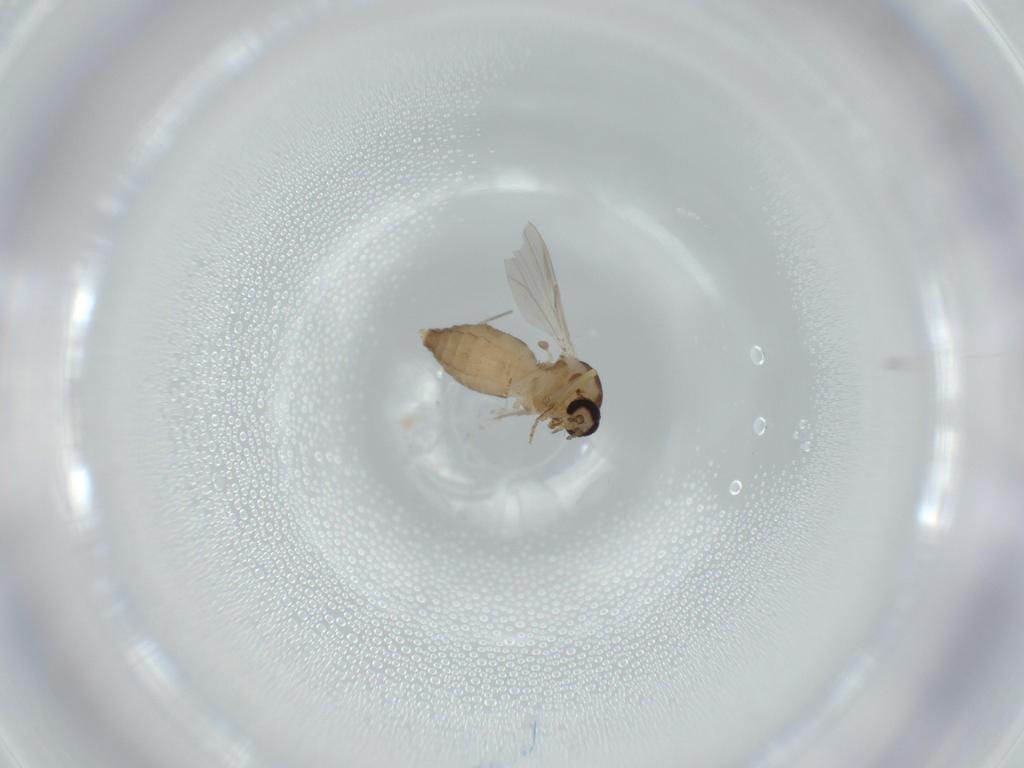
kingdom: Animalia
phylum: Arthropoda
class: Insecta
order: Diptera
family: Ceratopogonidae
